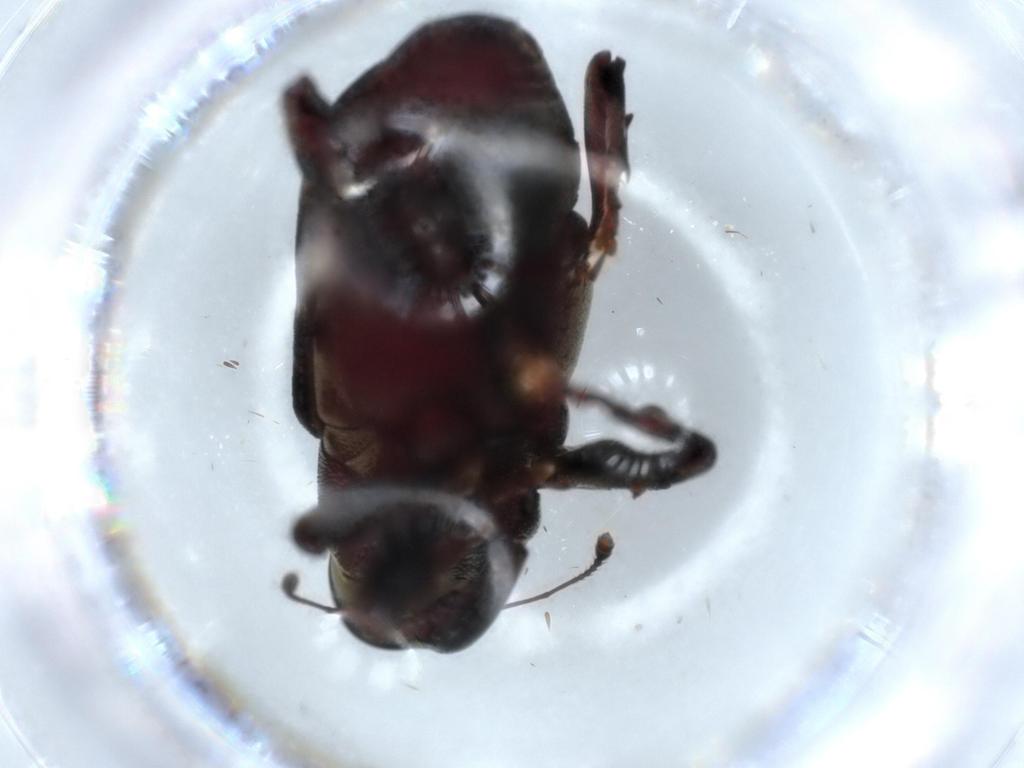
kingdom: Animalia
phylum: Arthropoda
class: Insecta
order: Coleoptera
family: Curculionidae
